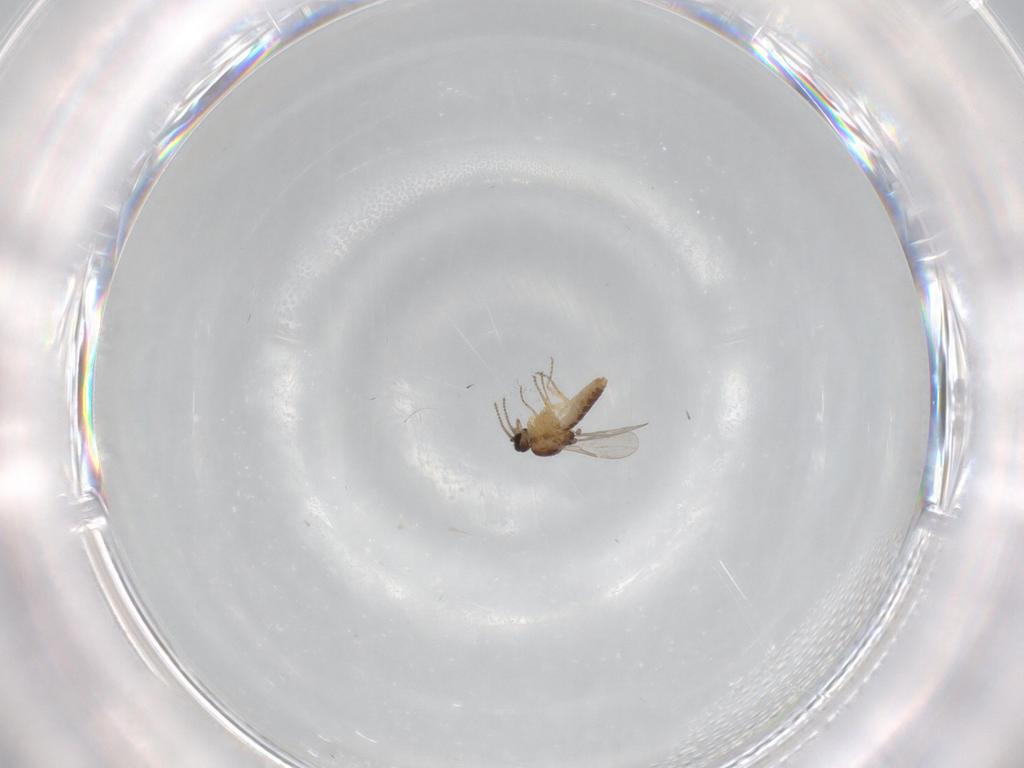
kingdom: Animalia
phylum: Arthropoda
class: Insecta
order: Diptera
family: Ceratopogonidae
